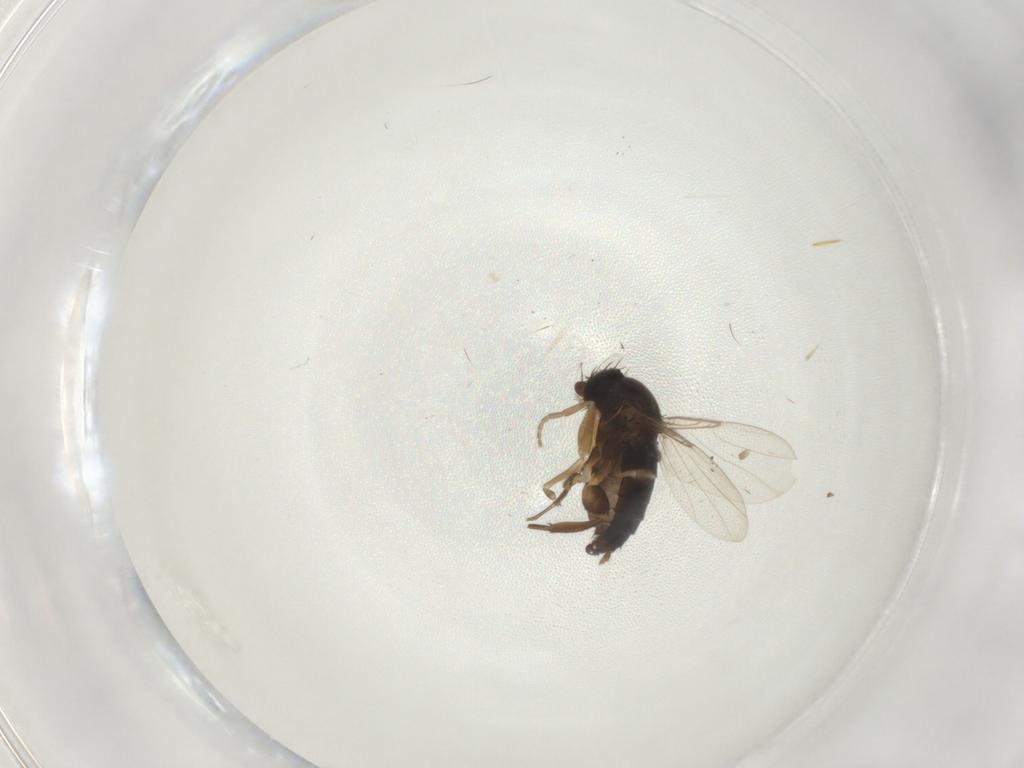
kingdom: Animalia
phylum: Arthropoda
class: Insecta
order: Diptera
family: Phoridae
